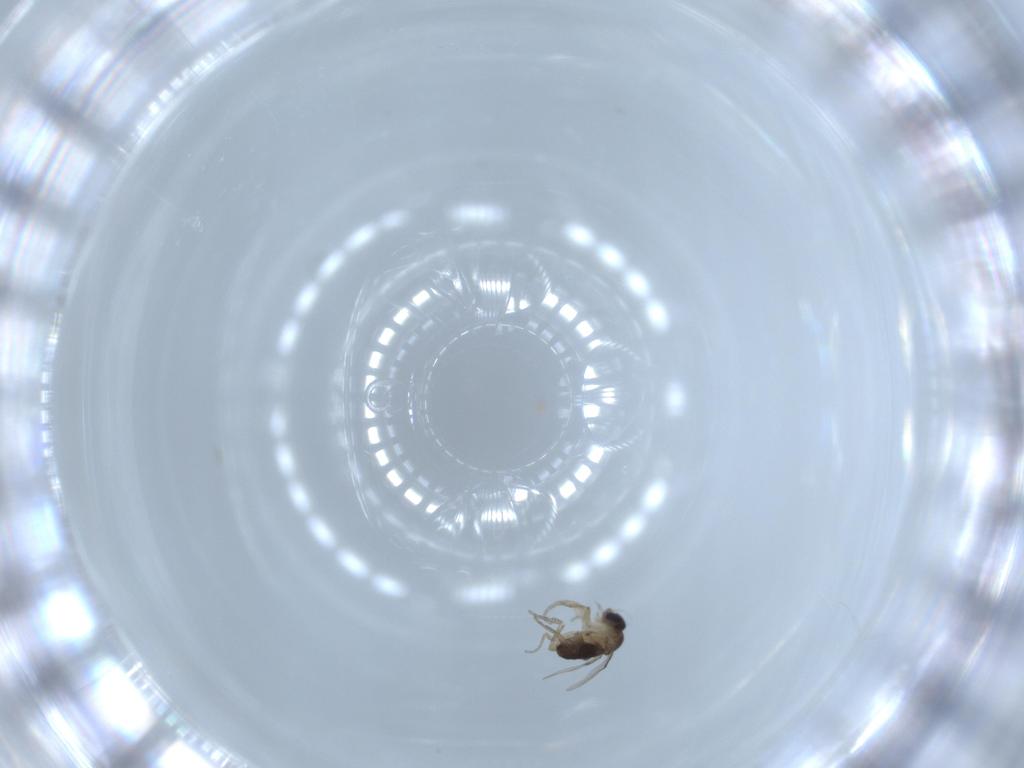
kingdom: Animalia
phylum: Arthropoda
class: Insecta
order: Diptera
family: Phoridae
